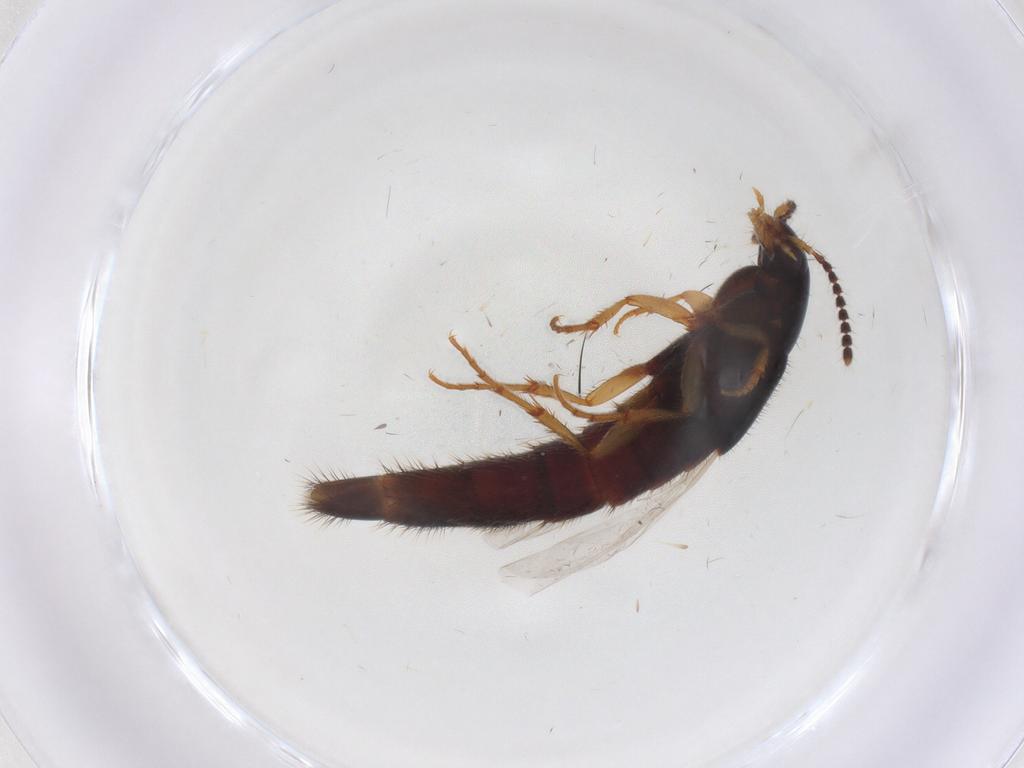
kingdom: Animalia
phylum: Arthropoda
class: Insecta
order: Coleoptera
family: Staphylinidae
